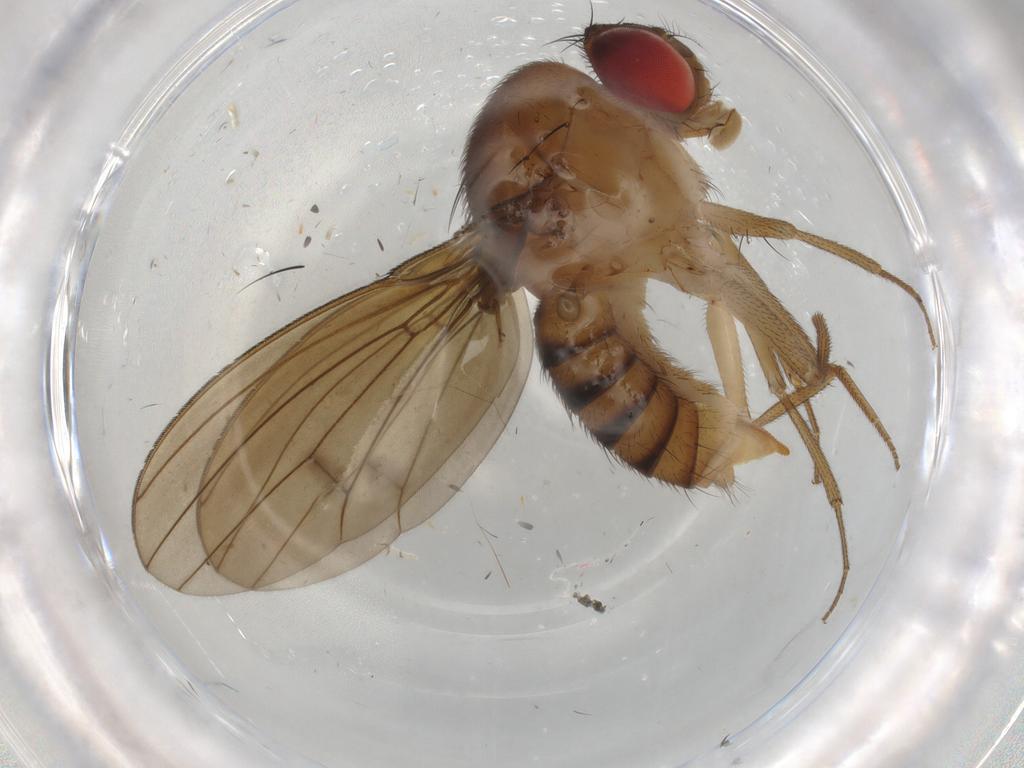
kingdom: Animalia
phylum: Arthropoda
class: Insecta
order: Diptera
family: Drosophilidae
